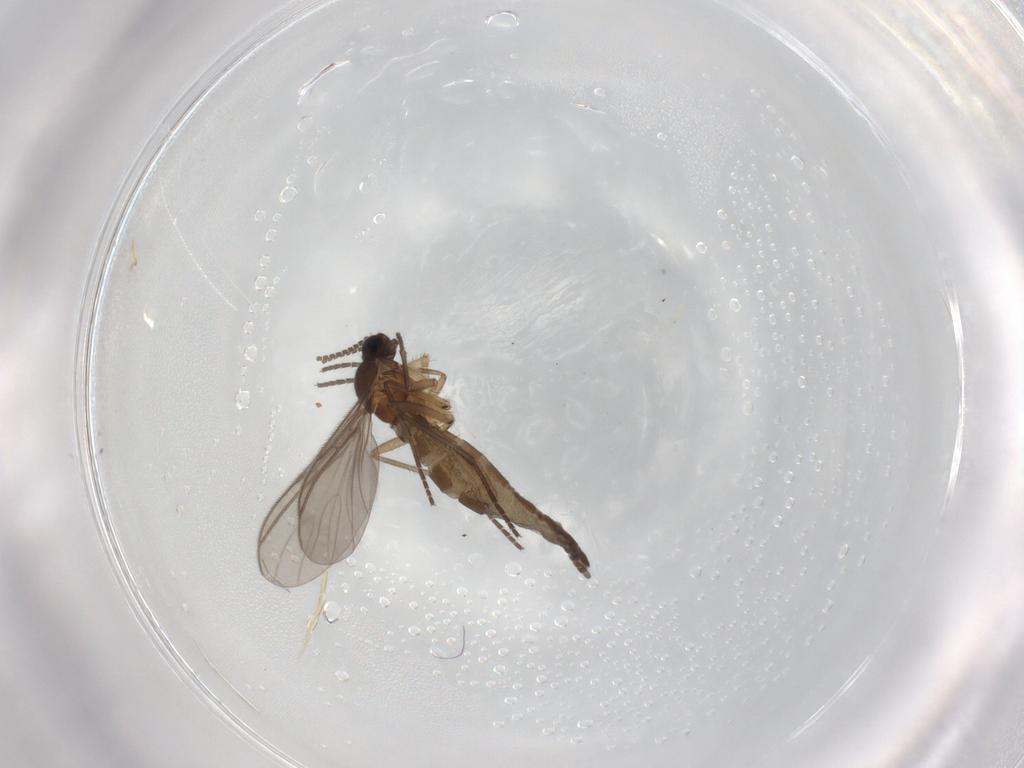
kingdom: Animalia
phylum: Arthropoda
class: Insecta
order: Diptera
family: Sciaridae
